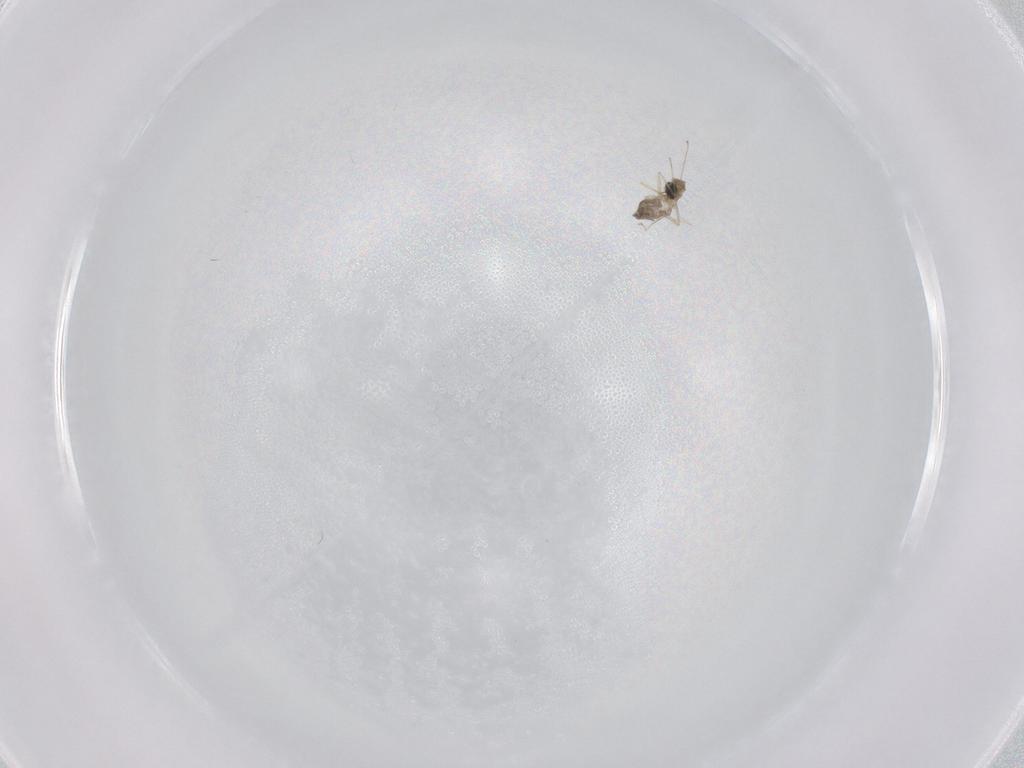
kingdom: Animalia
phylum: Arthropoda
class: Insecta
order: Diptera
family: Cecidomyiidae
